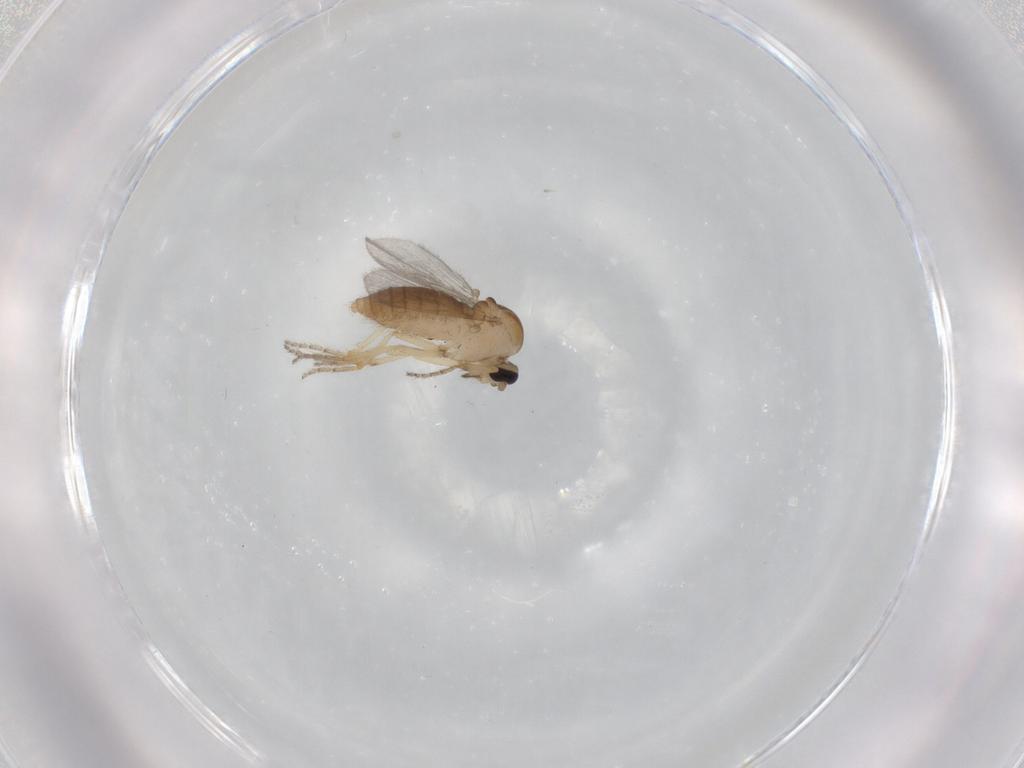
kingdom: Animalia
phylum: Arthropoda
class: Insecta
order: Diptera
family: Ceratopogonidae
